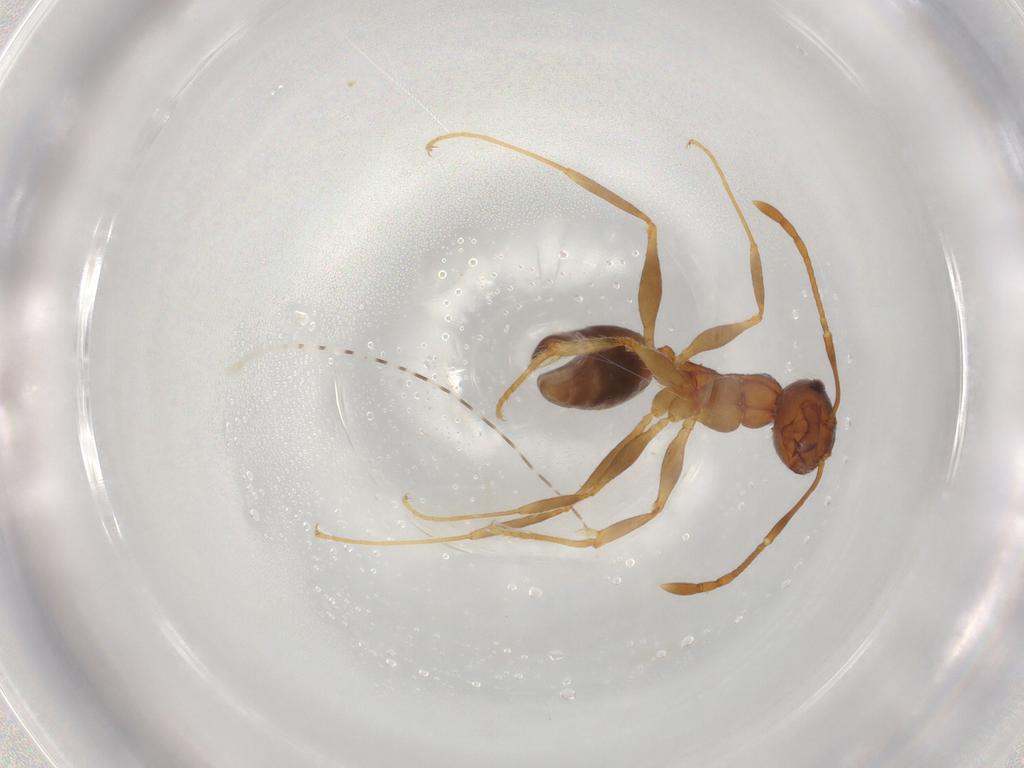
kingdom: Animalia
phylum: Arthropoda
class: Insecta
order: Hymenoptera
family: Formicidae
